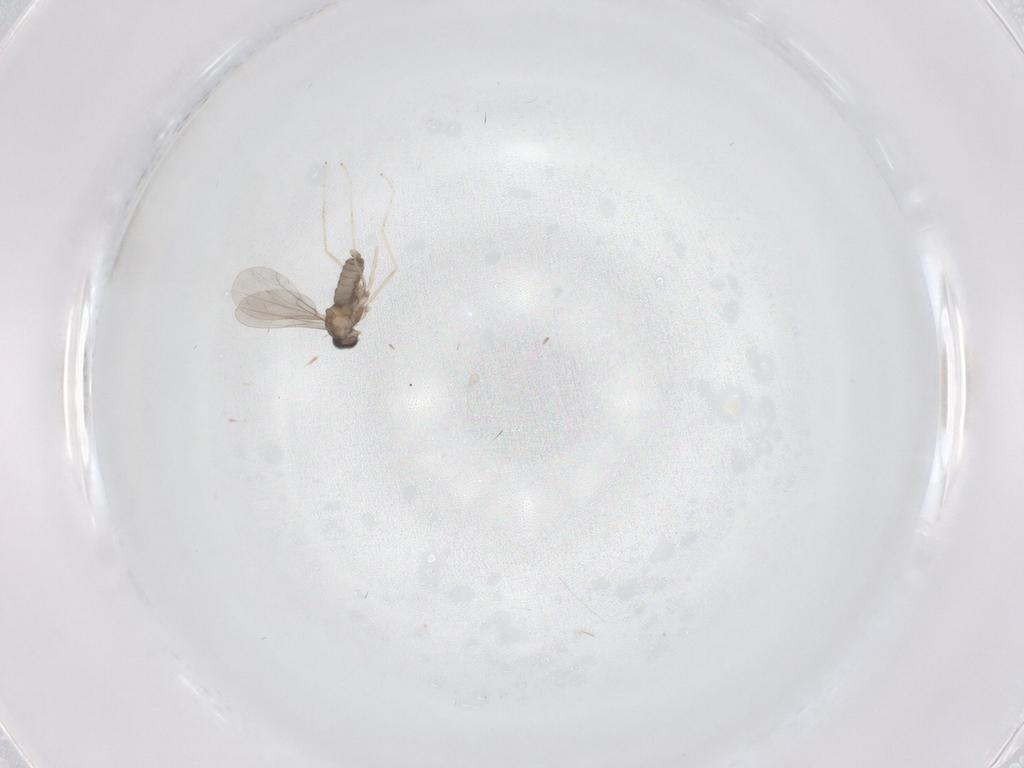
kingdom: Animalia
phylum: Arthropoda
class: Insecta
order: Diptera
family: Cecidomyiidae
